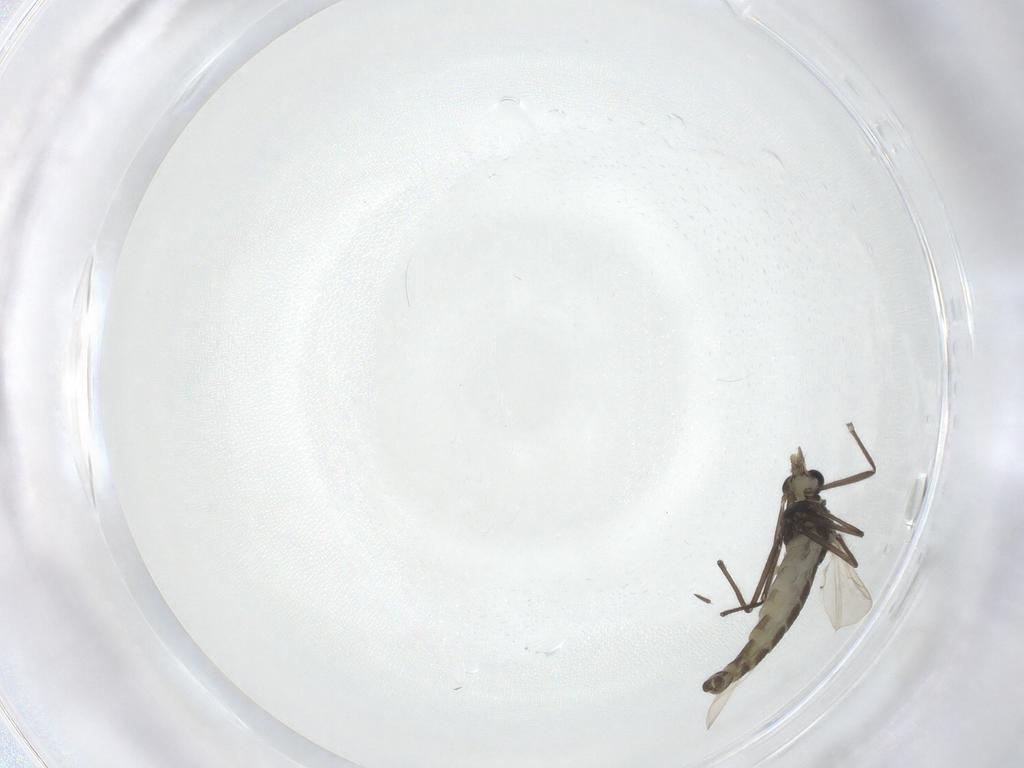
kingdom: Animalia
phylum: Arthropoda
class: Insecta
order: Diptera
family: Chironomidae
